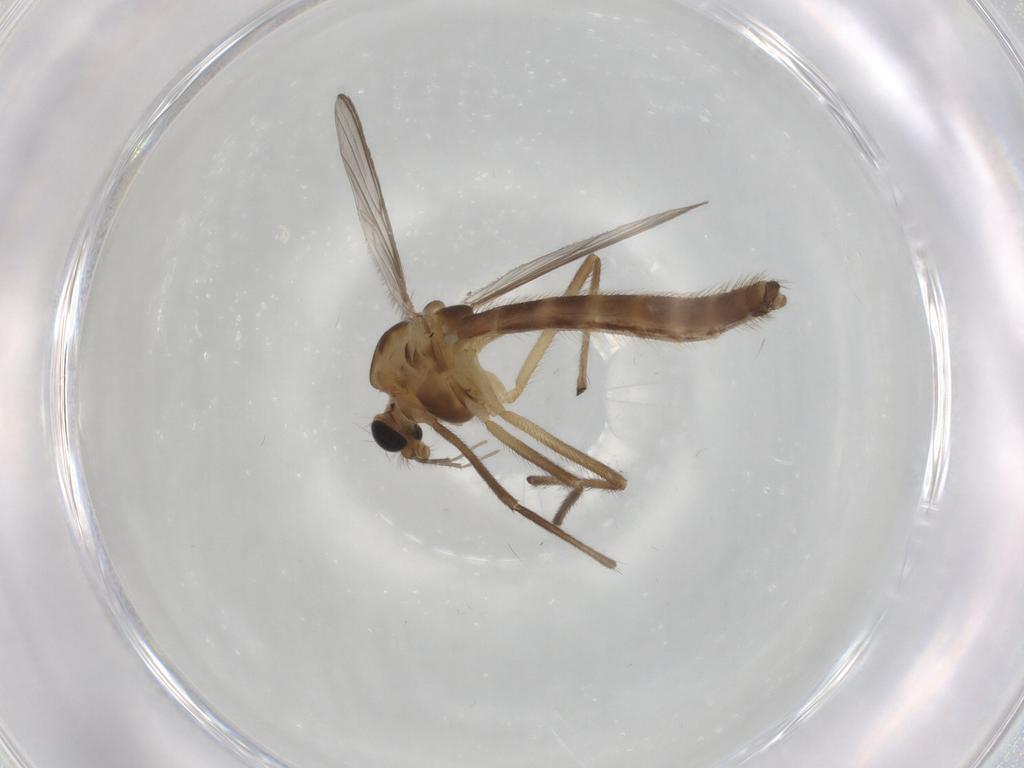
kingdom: Animalia
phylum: Arthropoda
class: Insecta
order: Diptera
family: Chironomidae
